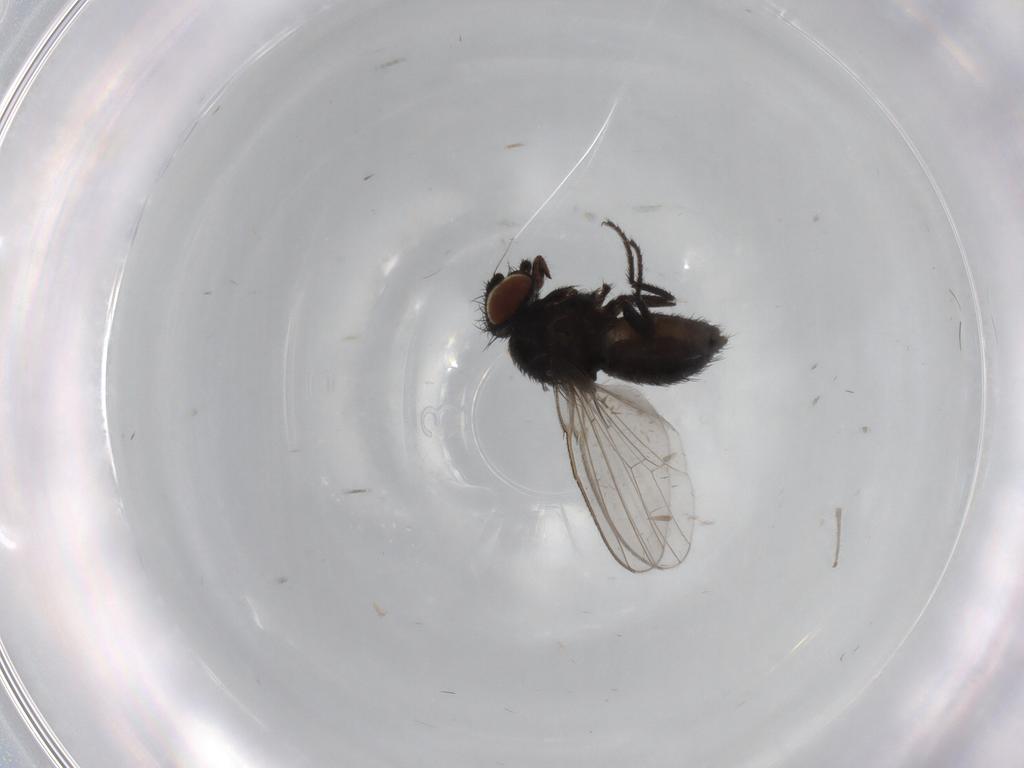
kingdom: Animalia
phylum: Arthropoda
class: Insecta
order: Diptera
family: Milichiidae
